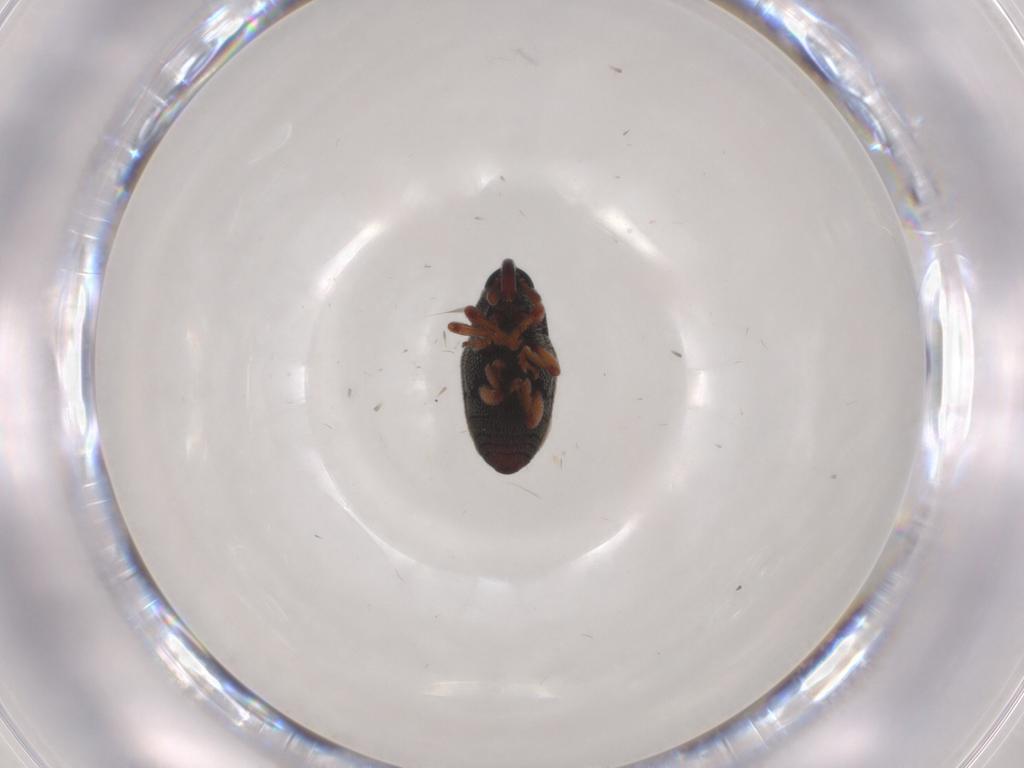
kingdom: Animalia
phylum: Arthropoda
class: Insecta
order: Coleoptera
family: Curculionidae
